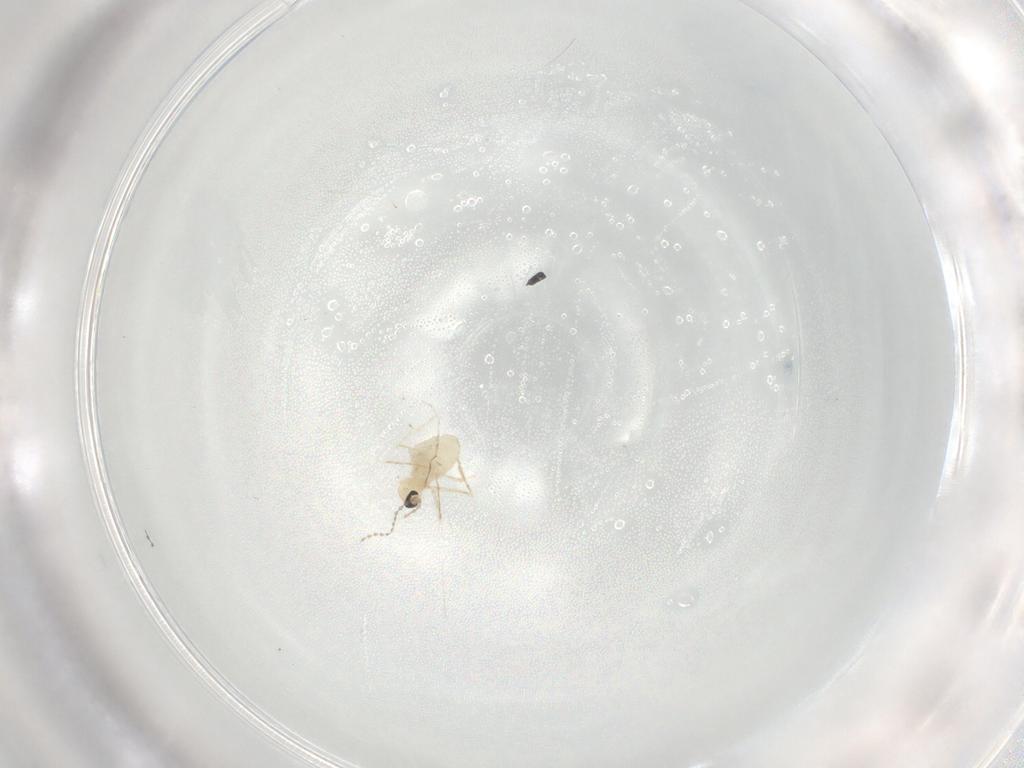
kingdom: Animalia
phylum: Arthropoda
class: Insecta
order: Diptera
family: Cecidomyiidae
